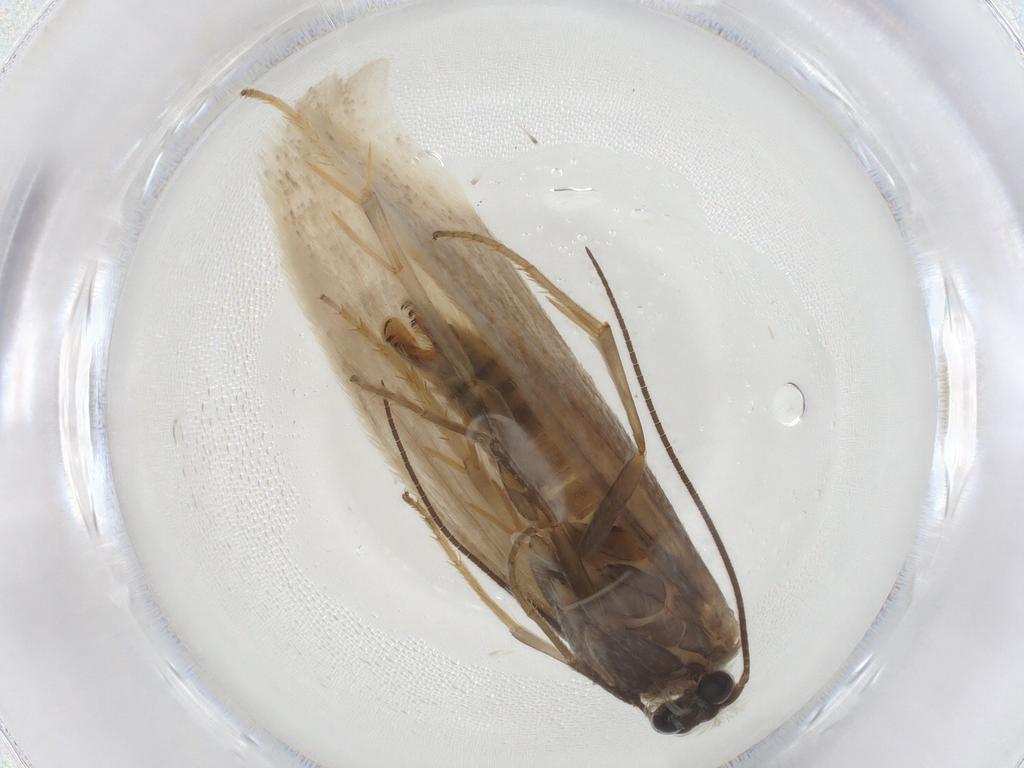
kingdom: Animalia
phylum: Arthropoda
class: Insecta
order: Lepidoptera
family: Tridentaformidae
